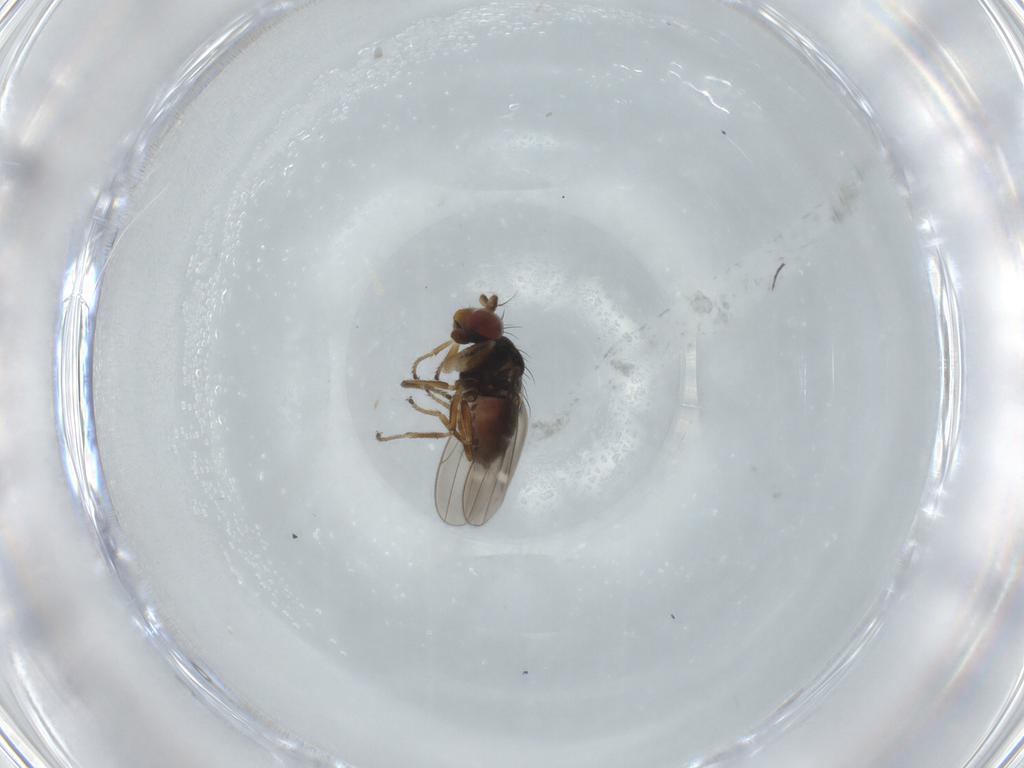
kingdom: Animalia
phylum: Arthropoda
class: Insecta
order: Diptera
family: Ephydridae
